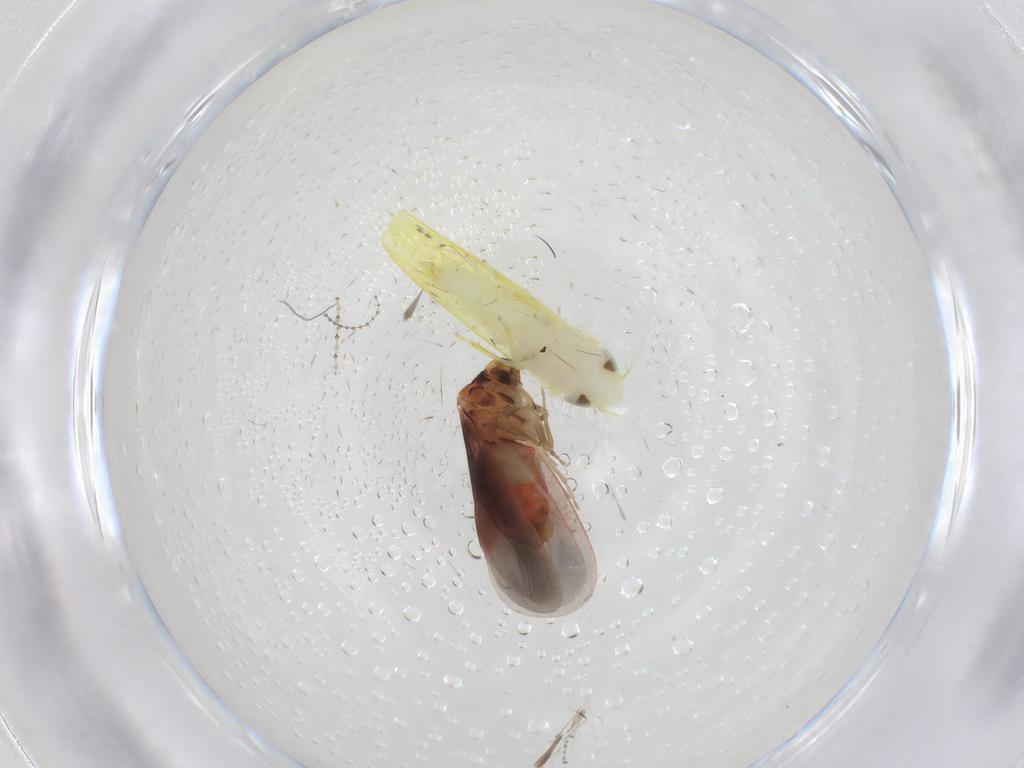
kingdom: Animalia
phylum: Arthropoda
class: Insecta
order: Hemiptera
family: Cicadellidae
